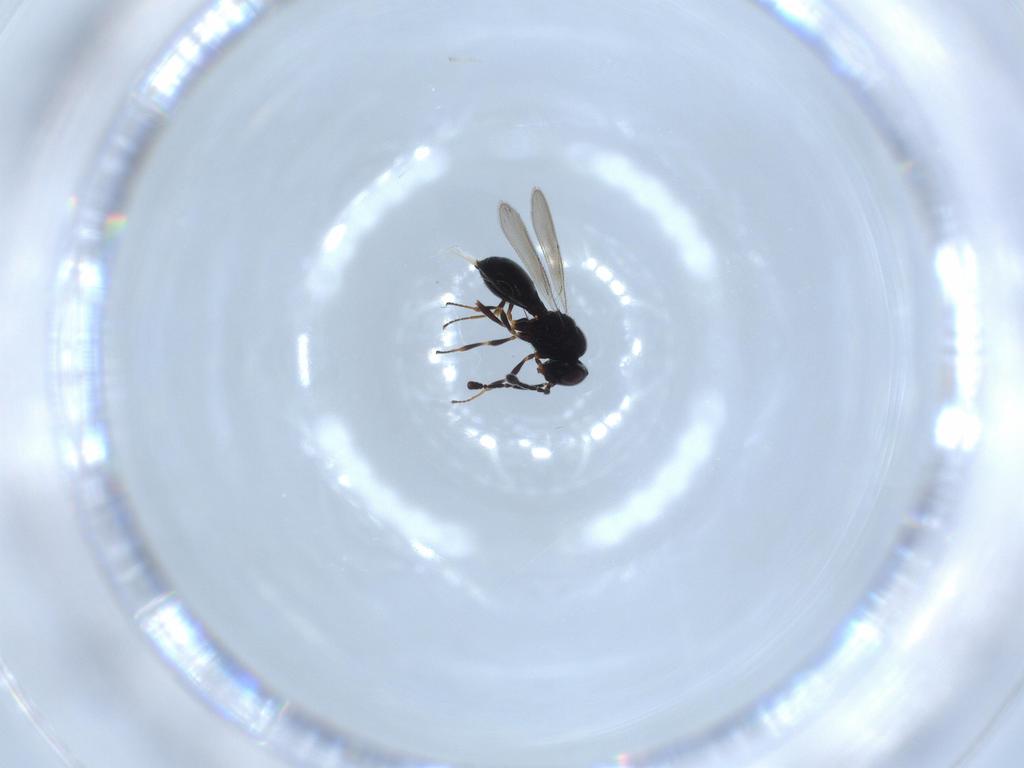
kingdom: Animalia
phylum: Arthropoda
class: Insecta
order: Hymenoptera
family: Scelionidae
